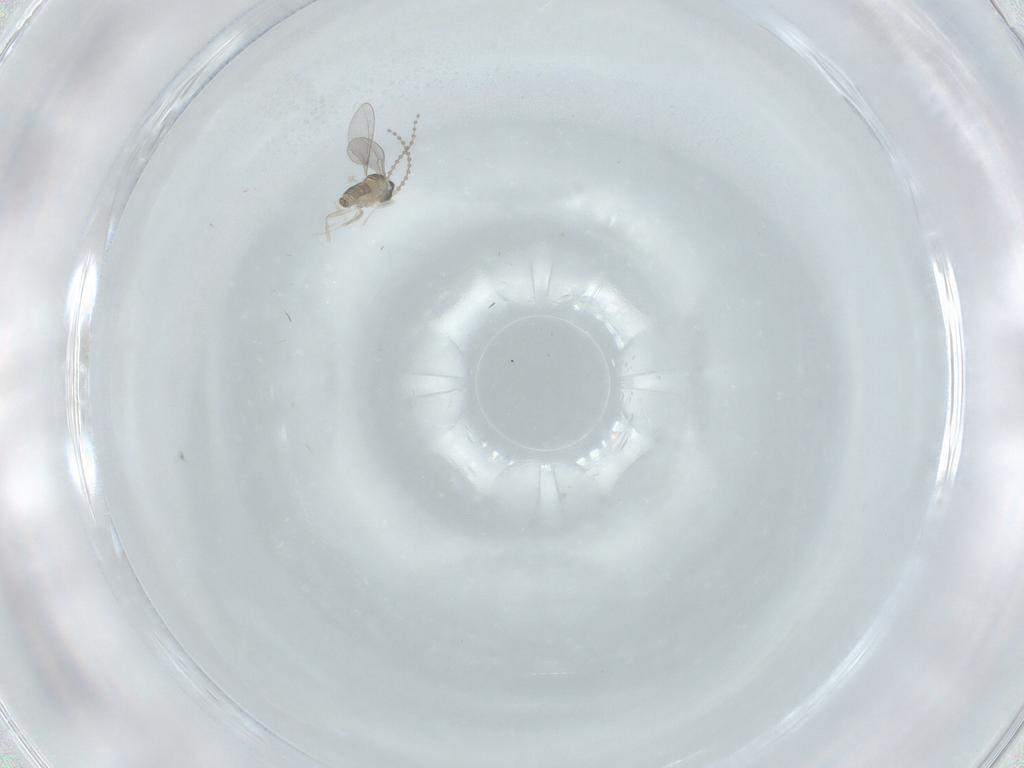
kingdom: Animalia
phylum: Arthropoda
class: Insecta
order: Diptera
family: Cecidomyiidae
